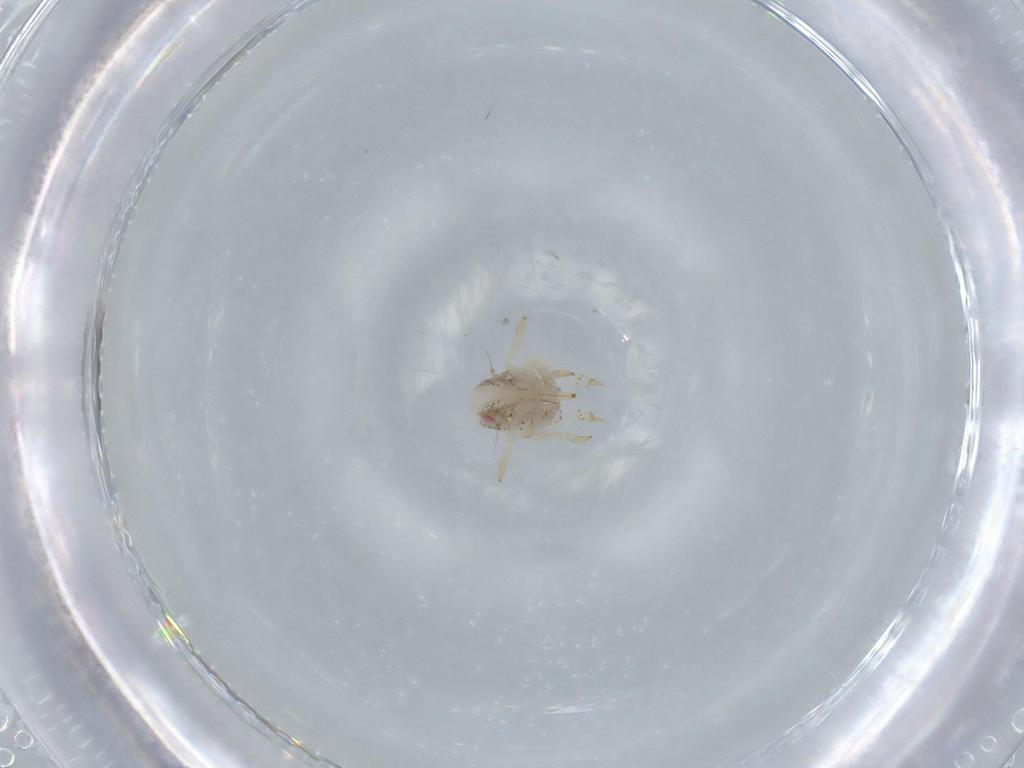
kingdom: Animalia
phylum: Arthropoda
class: Insecta
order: Hemiptera
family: Acanaloniidae
